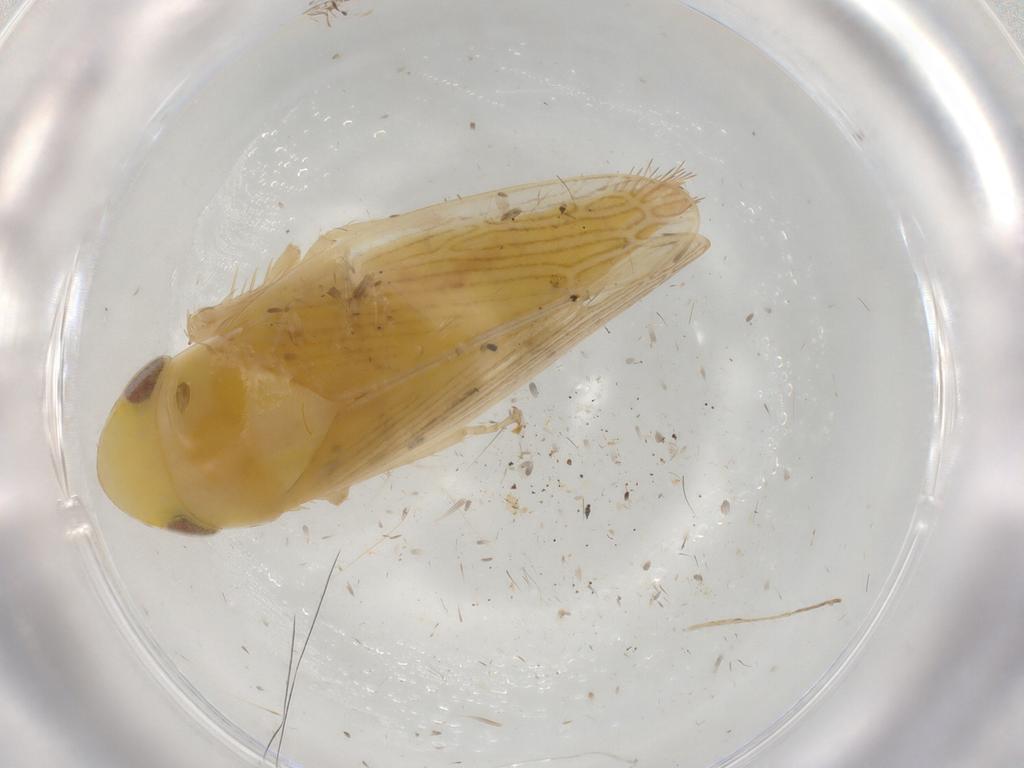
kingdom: Animalia
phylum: Arthropoda
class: Insecta
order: Hemiptera
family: Cicadellidae
